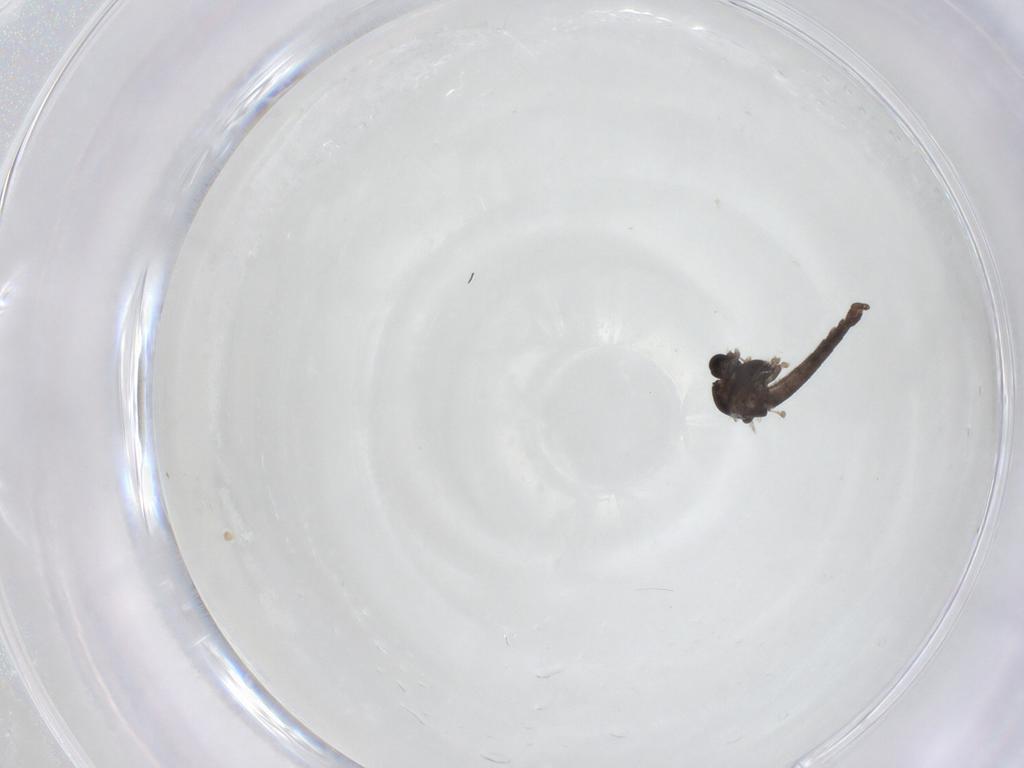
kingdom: Animalia
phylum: Arthropoda
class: Insecta
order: Diptera
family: Chironomidae
